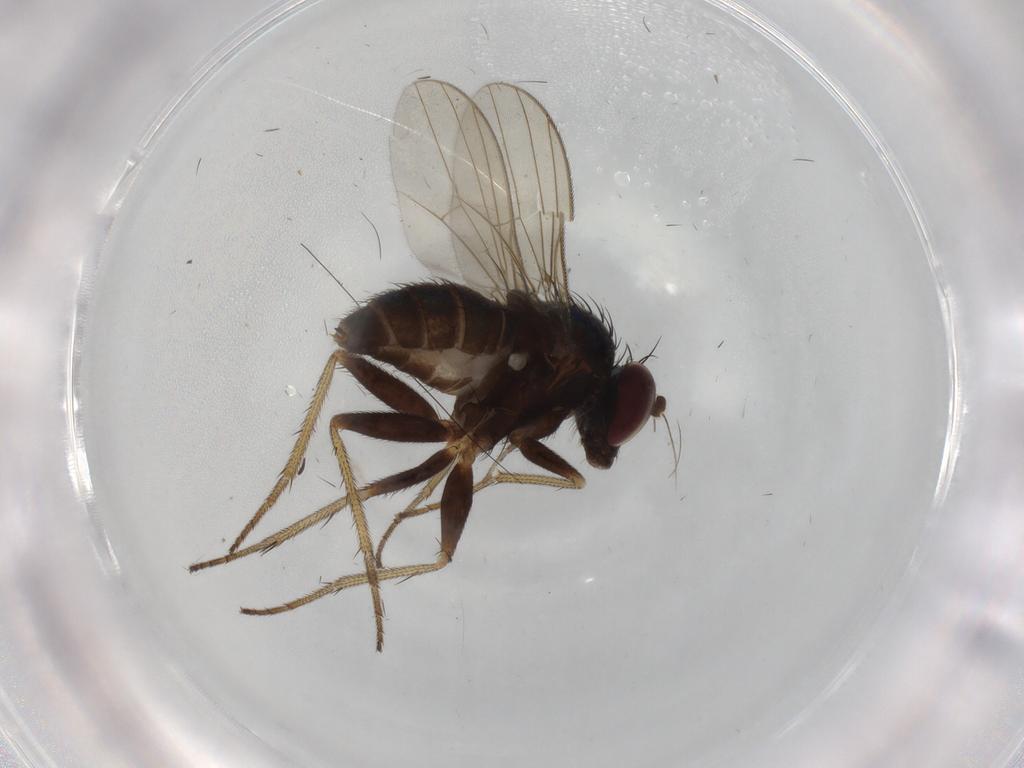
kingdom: Animalia
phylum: Arthropoda
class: Insecta
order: Diptera
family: Dolichopodidae
